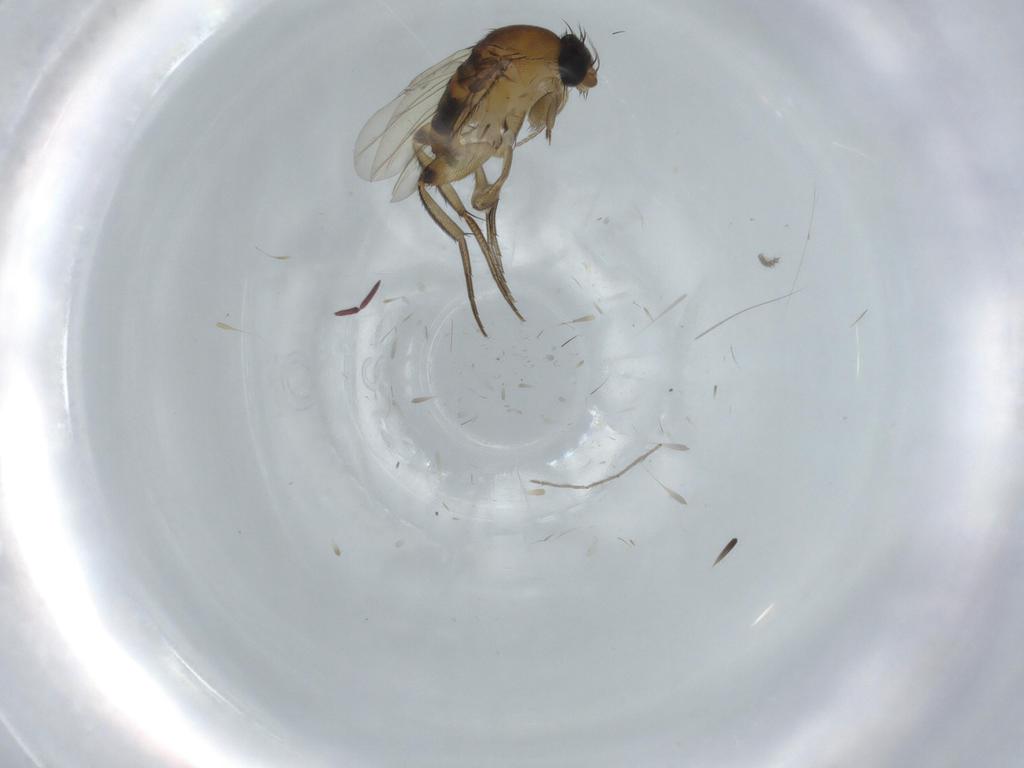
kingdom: Animalia
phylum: Arthropoda
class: Insecta
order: Diptera
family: Phoridae
